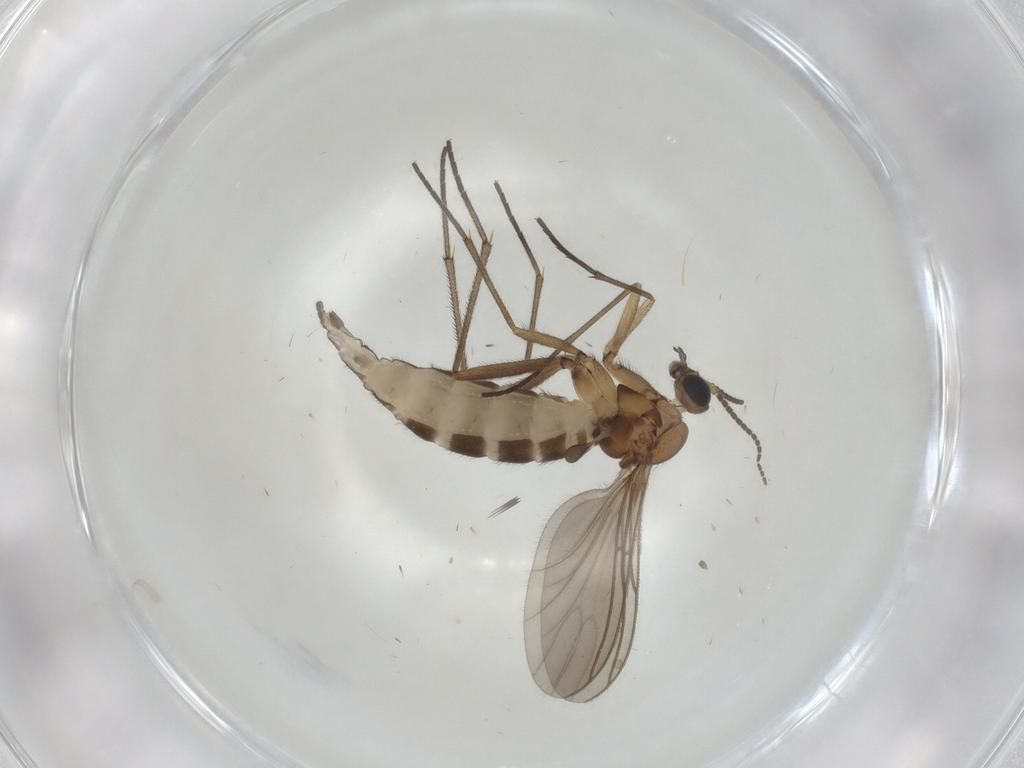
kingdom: Animalia
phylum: Arthropoda
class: Insecta
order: Diptera
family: Sciaridae
